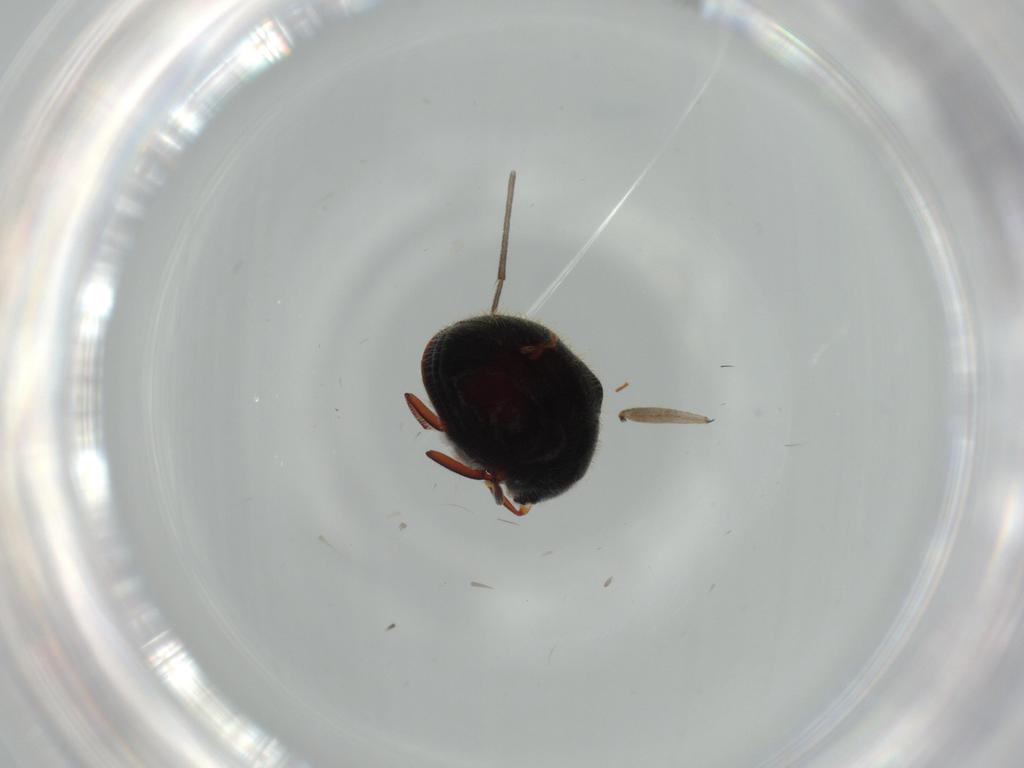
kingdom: Animalia
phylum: Arthropoda
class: Insecta
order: Coleoptera
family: Chrysomelidae
